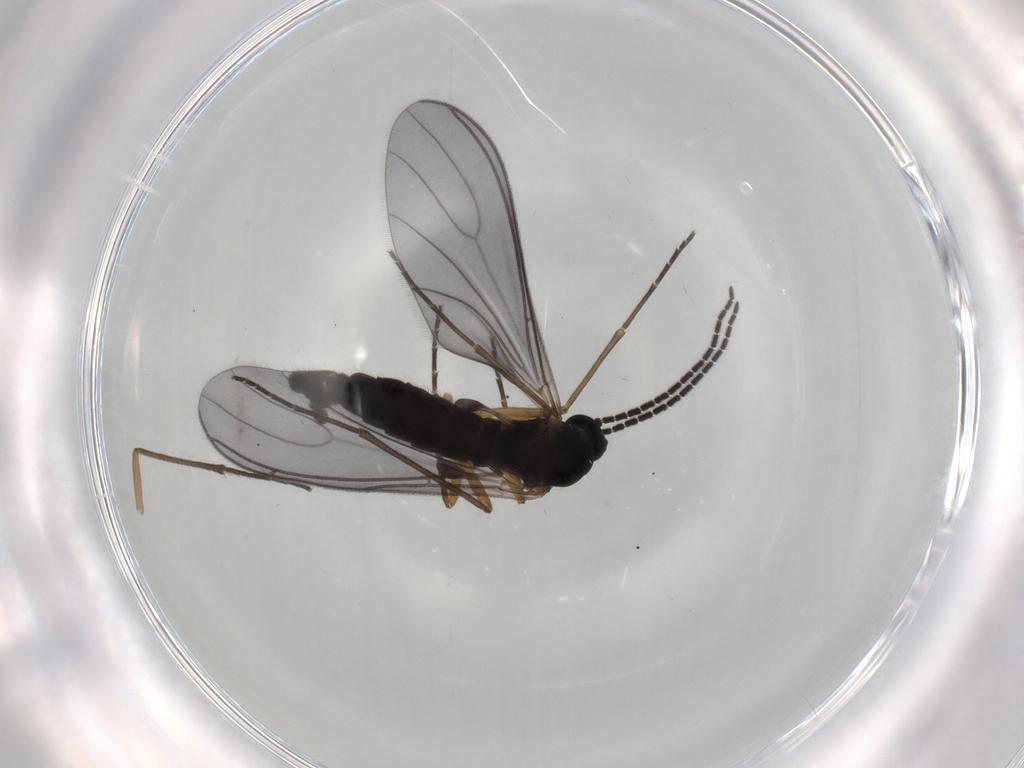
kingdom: Animalia
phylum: Arthropoda
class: Insecta
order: Diptera
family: Sciaridae
